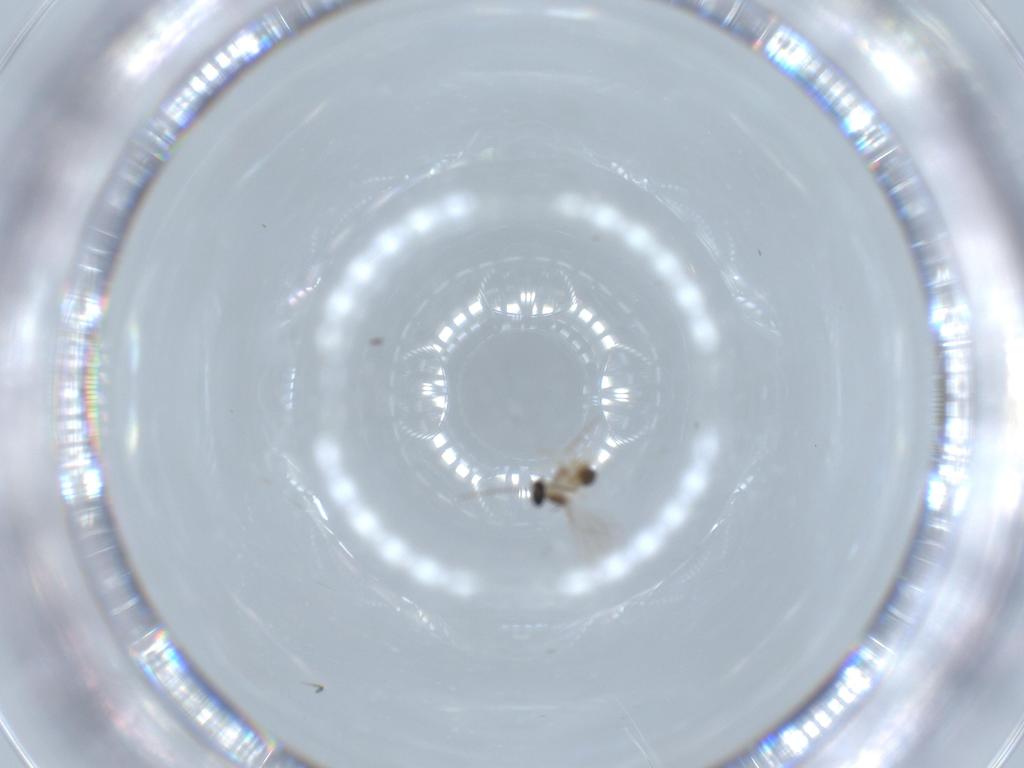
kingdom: Animalia
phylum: Arthropoda
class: Insecta
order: Diptera
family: Cecidomyiidae
